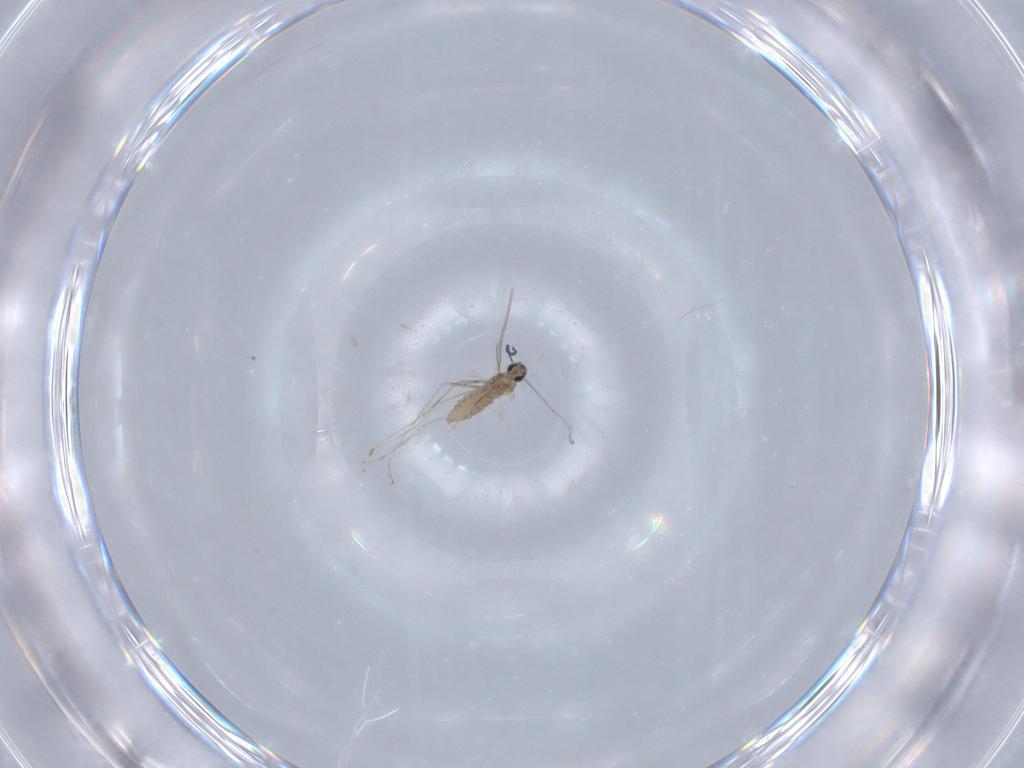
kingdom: Animalia
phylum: Arthropoda
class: Insecta
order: Diptera
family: Cecidomyiidae
